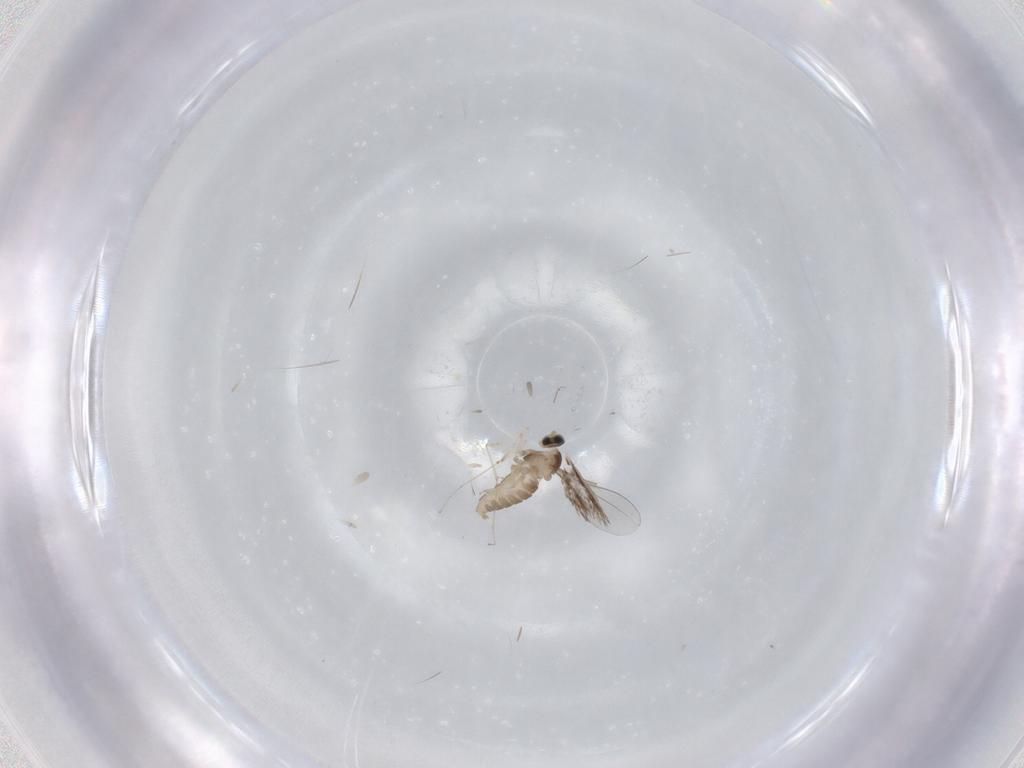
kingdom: Animalia
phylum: Arthropoda
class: Insecta
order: Diptera
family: Cecidomyiidae
